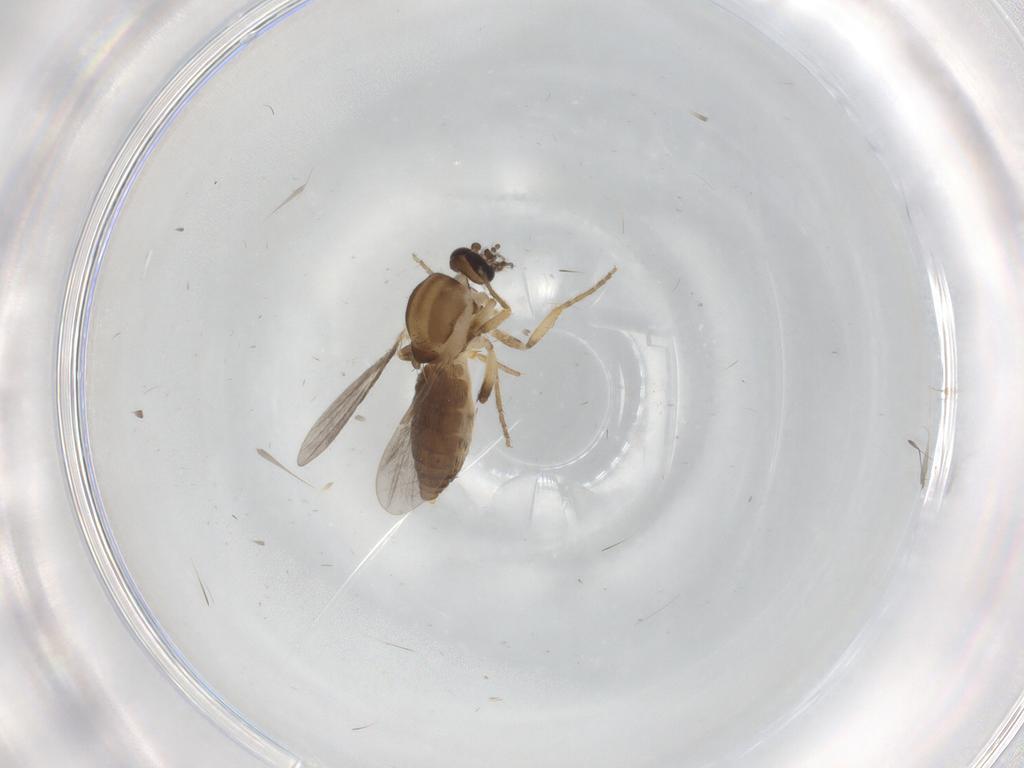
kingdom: Animalia
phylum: Arthropoda
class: Insecta
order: Diptera
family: Ceratopogonidae
